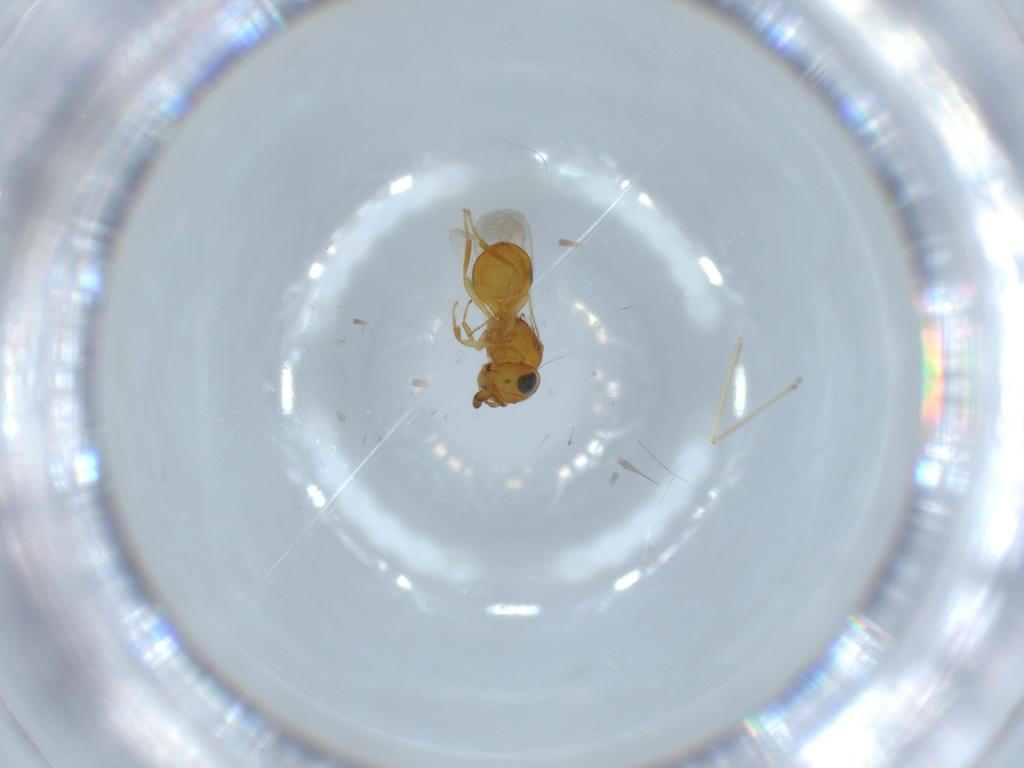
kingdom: Animalia
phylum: Arthropoda
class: Insecta
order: Hymenoptera
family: Scelionidae
